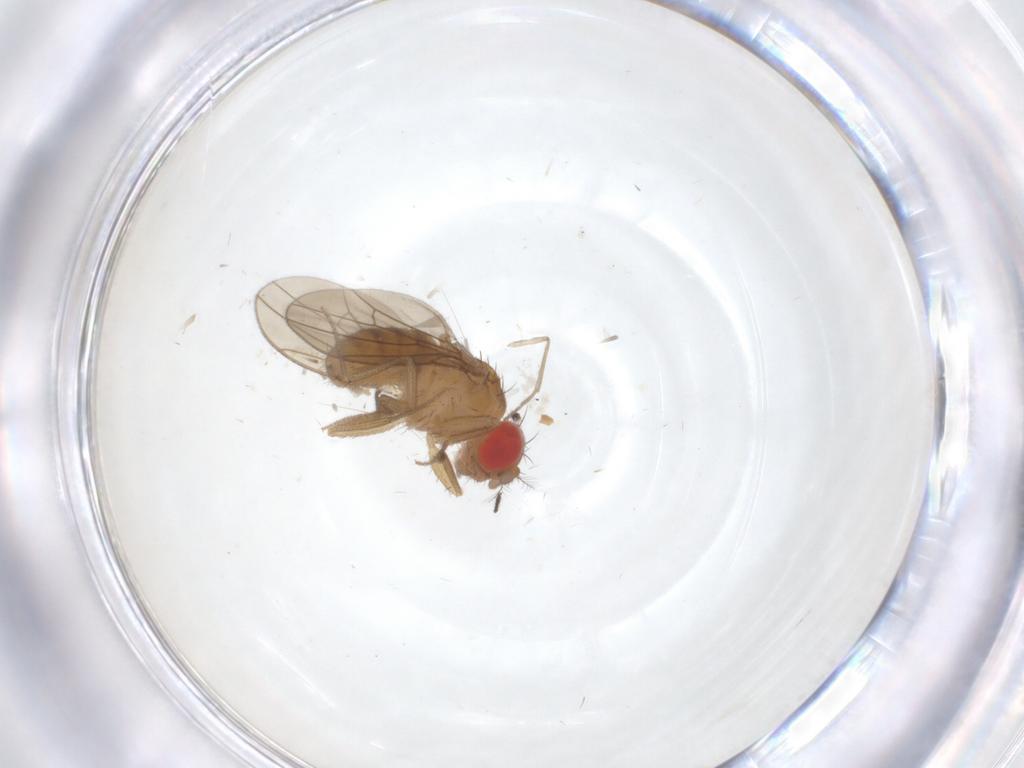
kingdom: Animalia
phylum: Arthropoda
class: Insecta
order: Diptera
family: Drosophilidae
